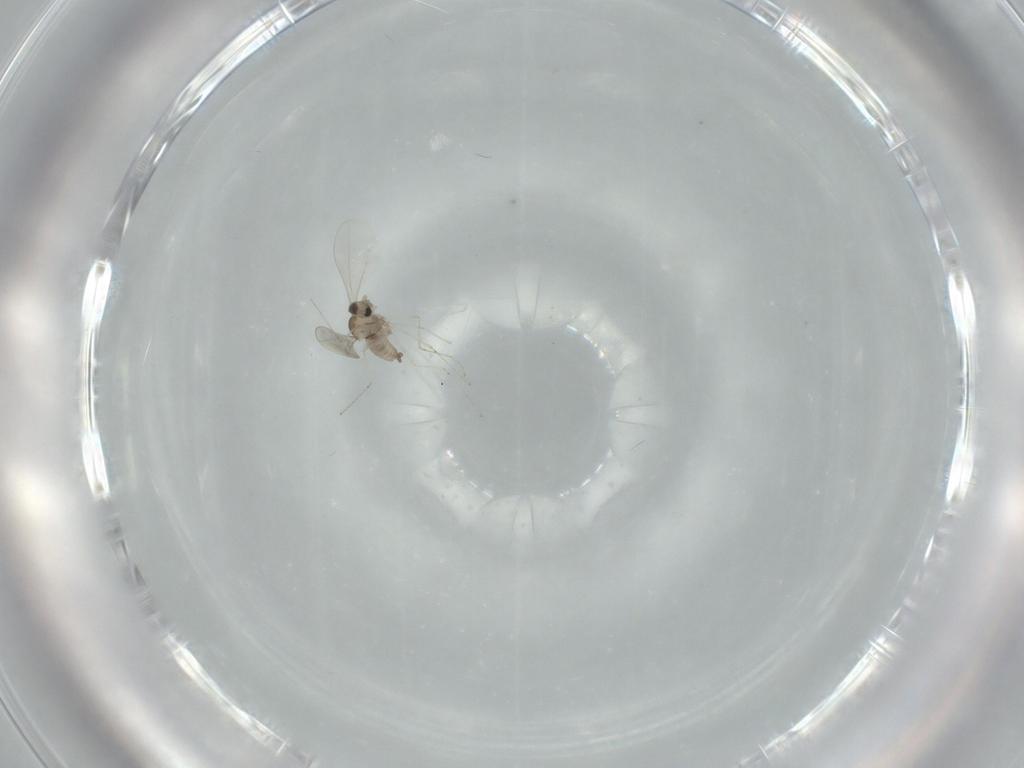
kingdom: Animalia
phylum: Arthropoda
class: Insecta
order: Diptera
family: Cecidomyiidae
